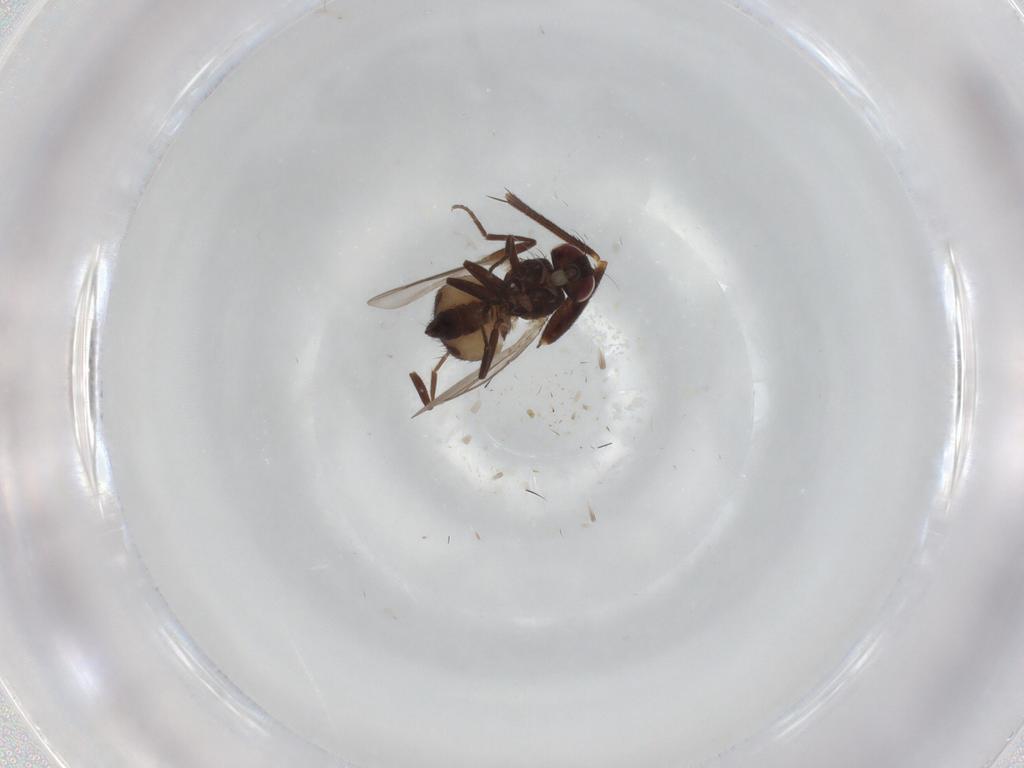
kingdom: Animalia
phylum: Arthropoda
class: Insecta
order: Diptera
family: Dolichopodidae
